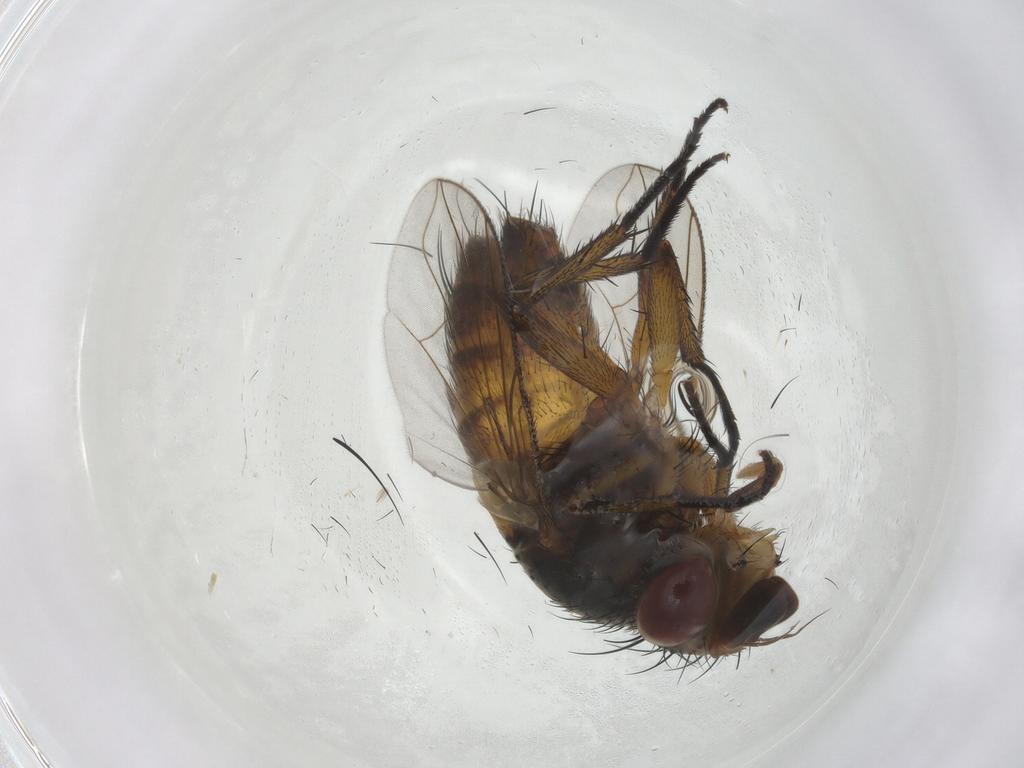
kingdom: Animalia
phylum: Arthropoda
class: Insecta
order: Diptera
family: Tachinidae
